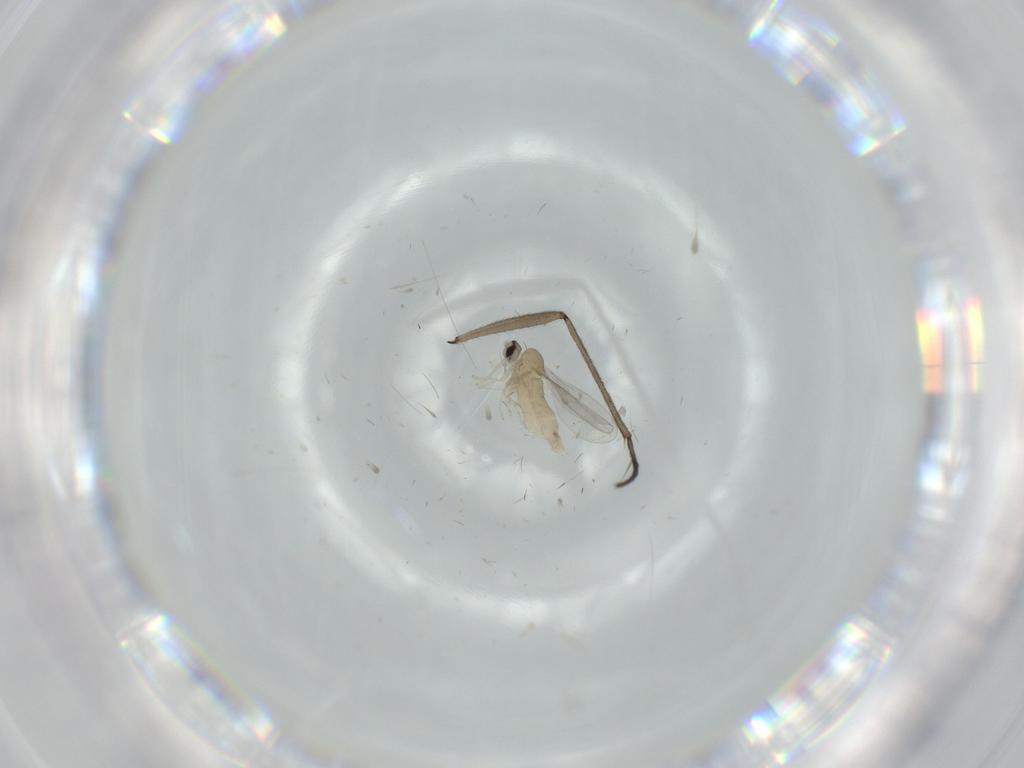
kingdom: Animalia
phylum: Arthropoda
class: Insecta
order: Diptera
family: Cecidomyiidae
